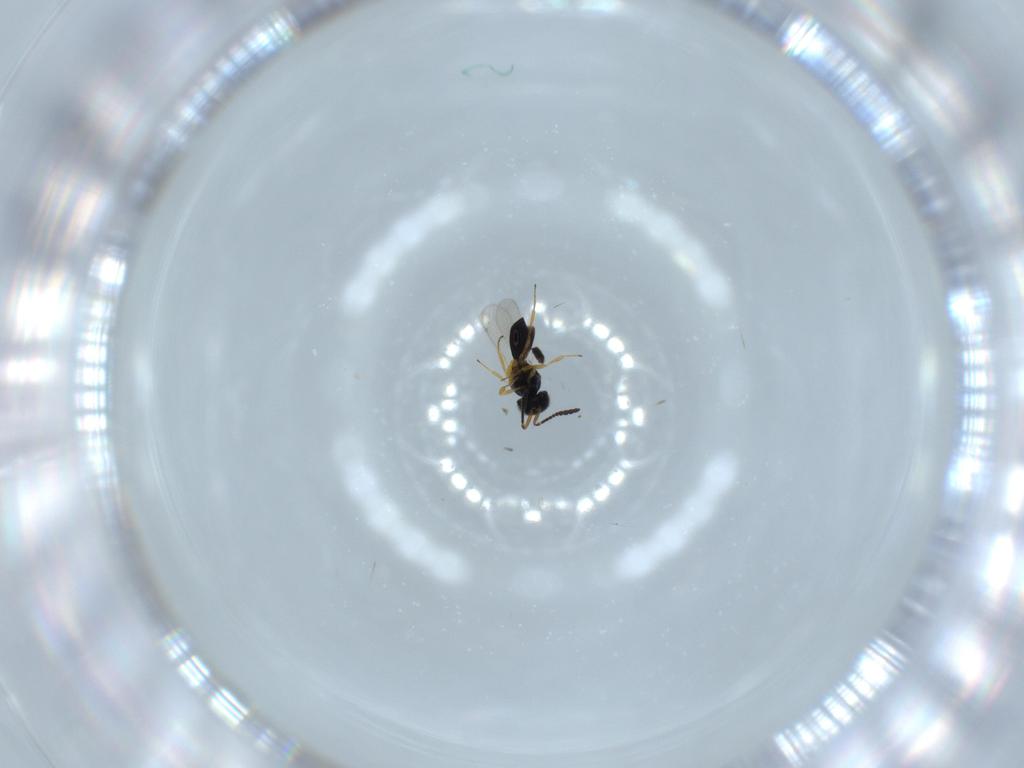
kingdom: Animalia
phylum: Arthropoda
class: Insecta
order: Hymenoptera
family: Scelionidae
